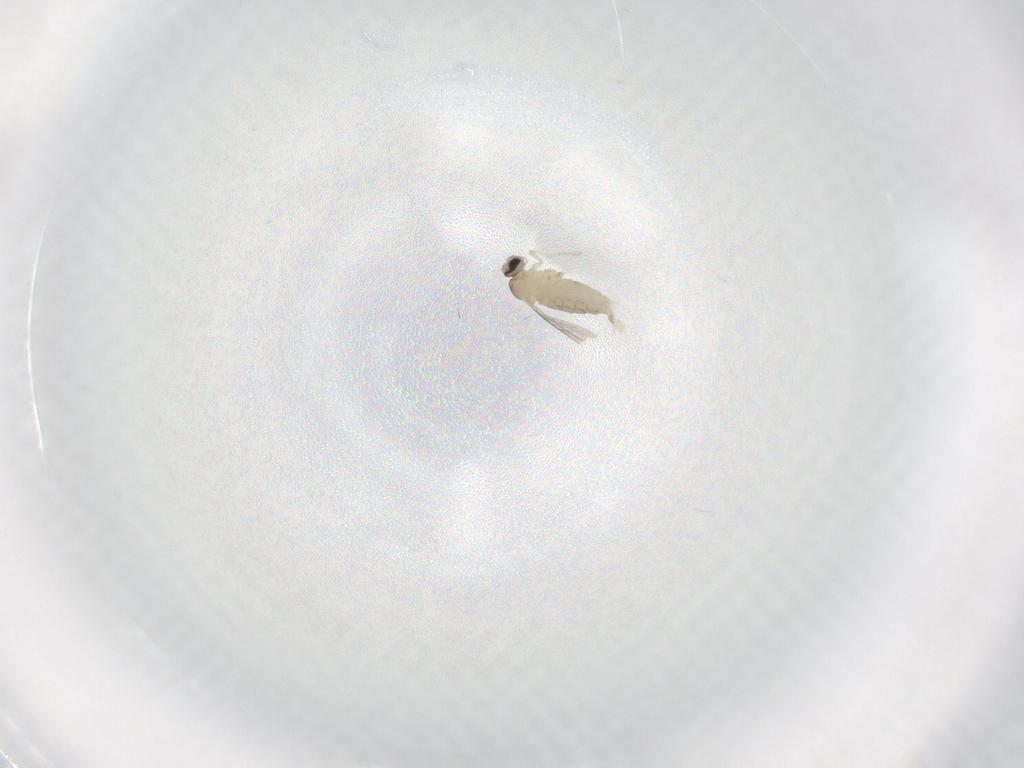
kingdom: Animalia
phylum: Arthropoda
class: Insecta
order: Diptera
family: Cecidomyiidae
